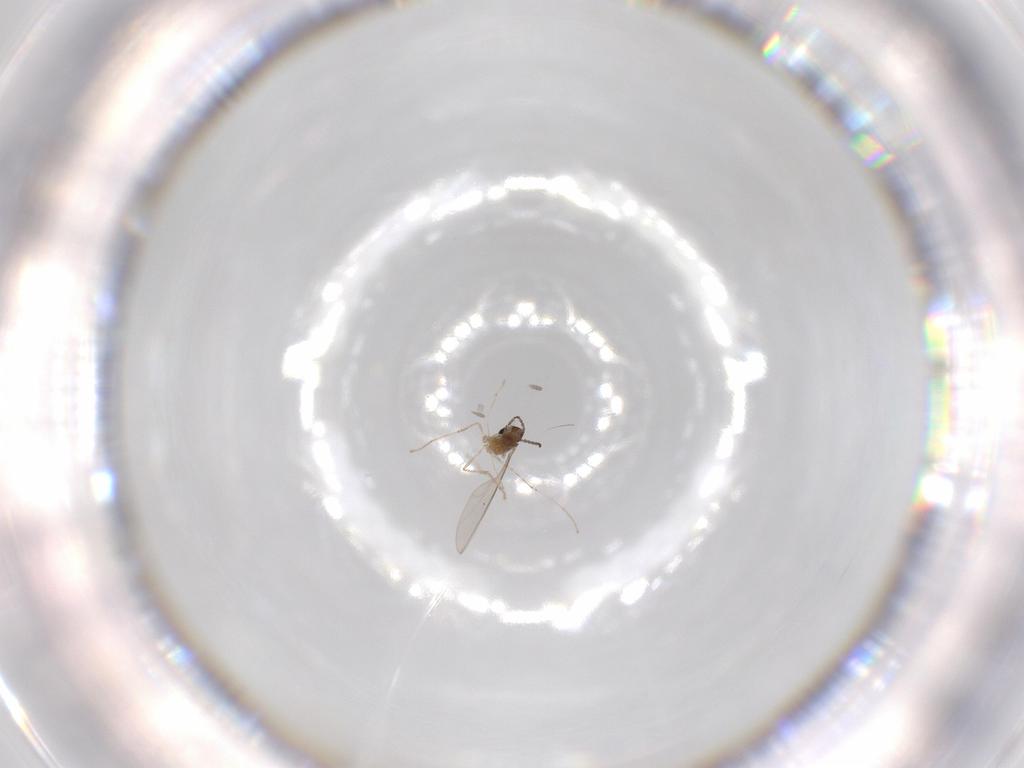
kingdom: Animalia
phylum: Arthropoda
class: Insecta
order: Diptera
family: Cecidomyiidae
